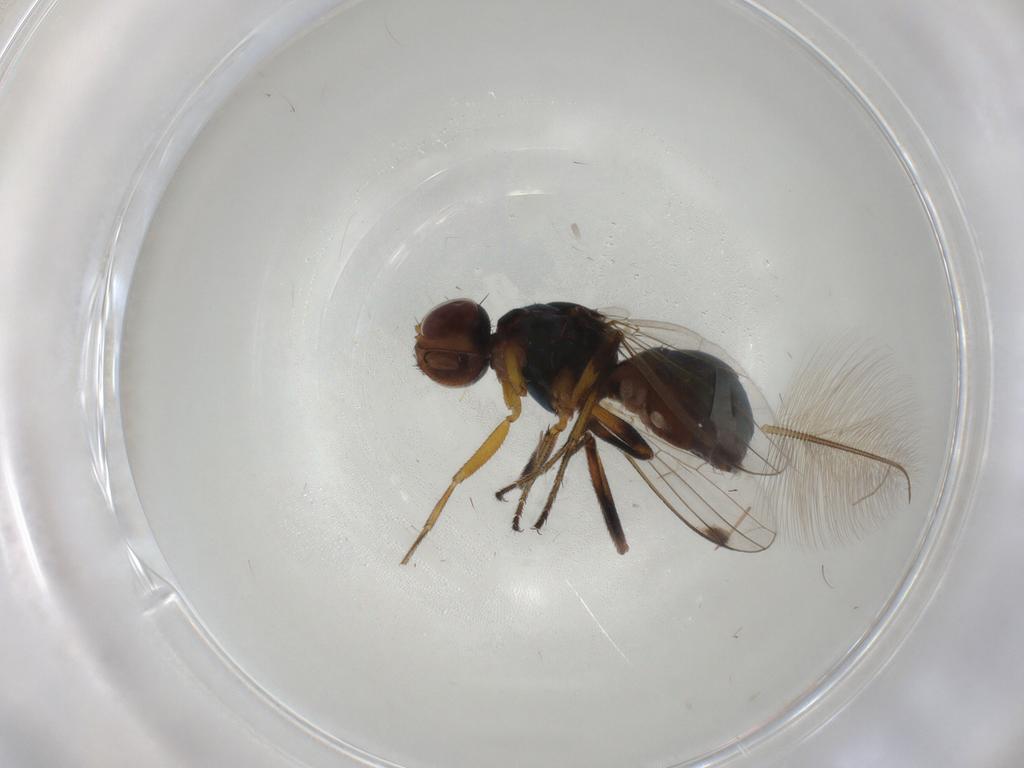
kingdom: Animalia
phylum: Arthropoda
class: Insecta
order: Diptera
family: Sepsidae
